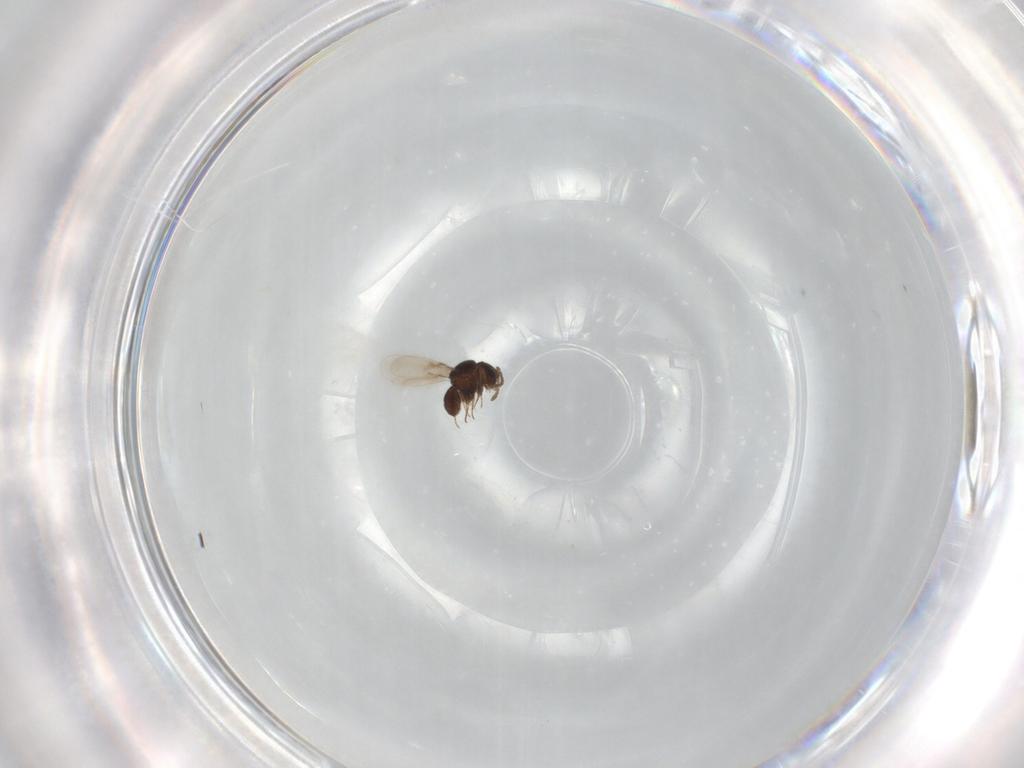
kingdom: Animalia
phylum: Arthropoda
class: Insecta
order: Hymenoptera
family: Scelionidae
